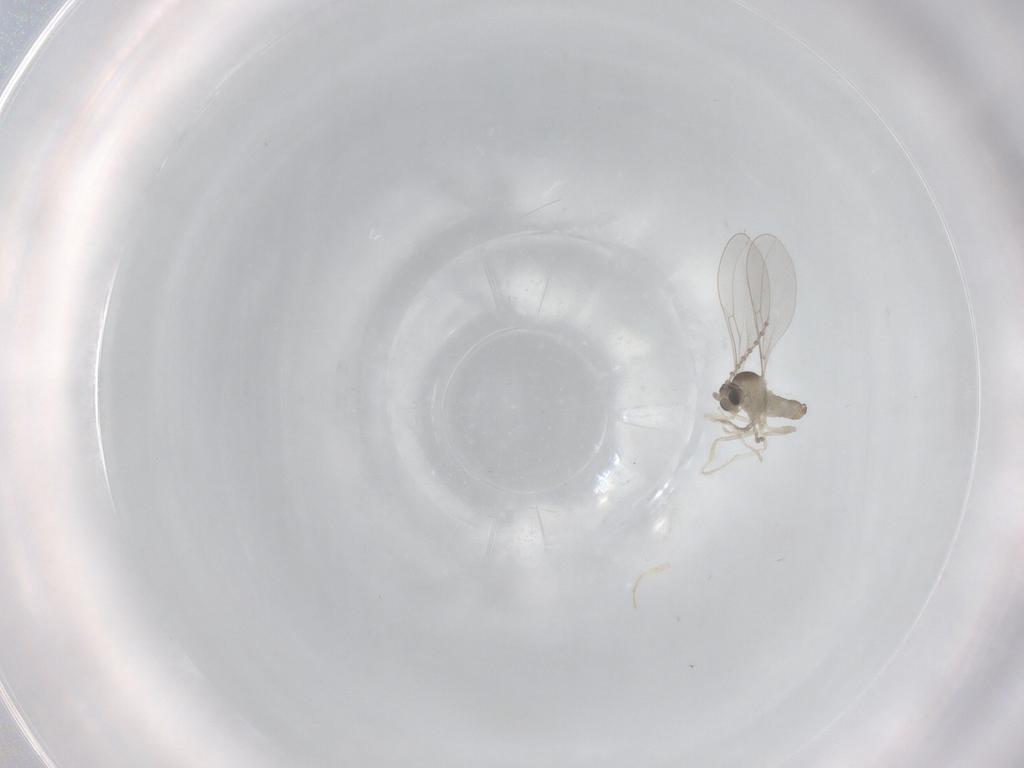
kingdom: Animalia
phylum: Arthropoda
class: Insecta
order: Diptera
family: Cecidomyiidae
